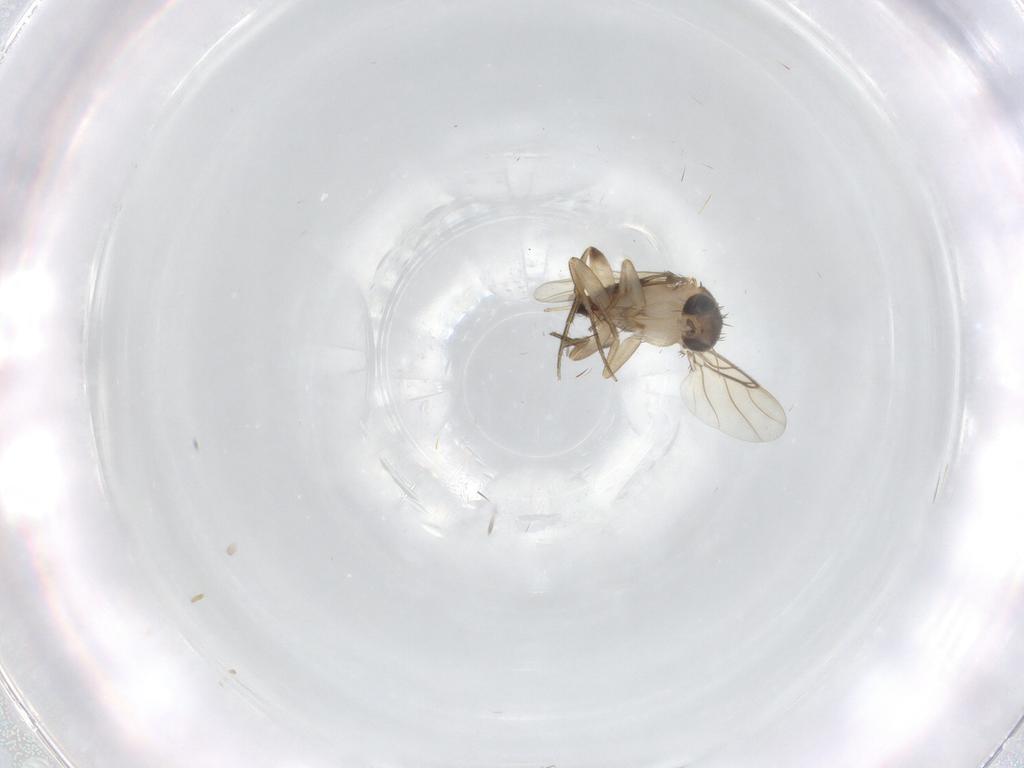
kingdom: Animalia
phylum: Arthropoda
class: Insecta
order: Diptera
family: Phoridae
